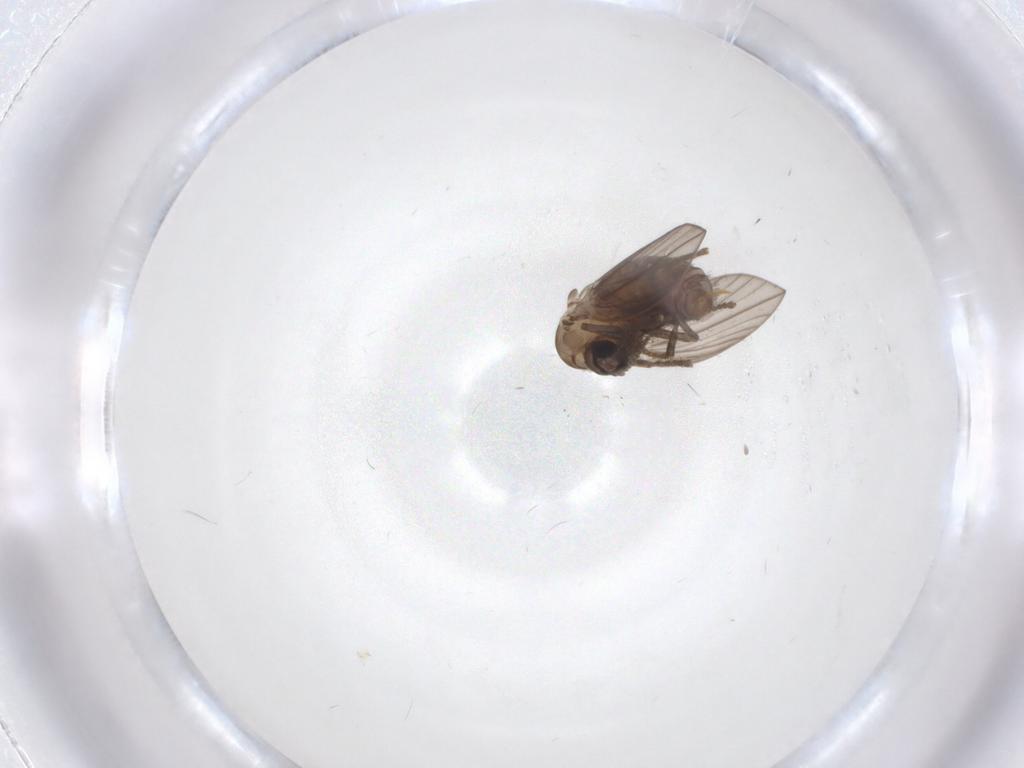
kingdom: Animalia
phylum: Arthropoda
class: Insecta
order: Diptera
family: Psychodidae
